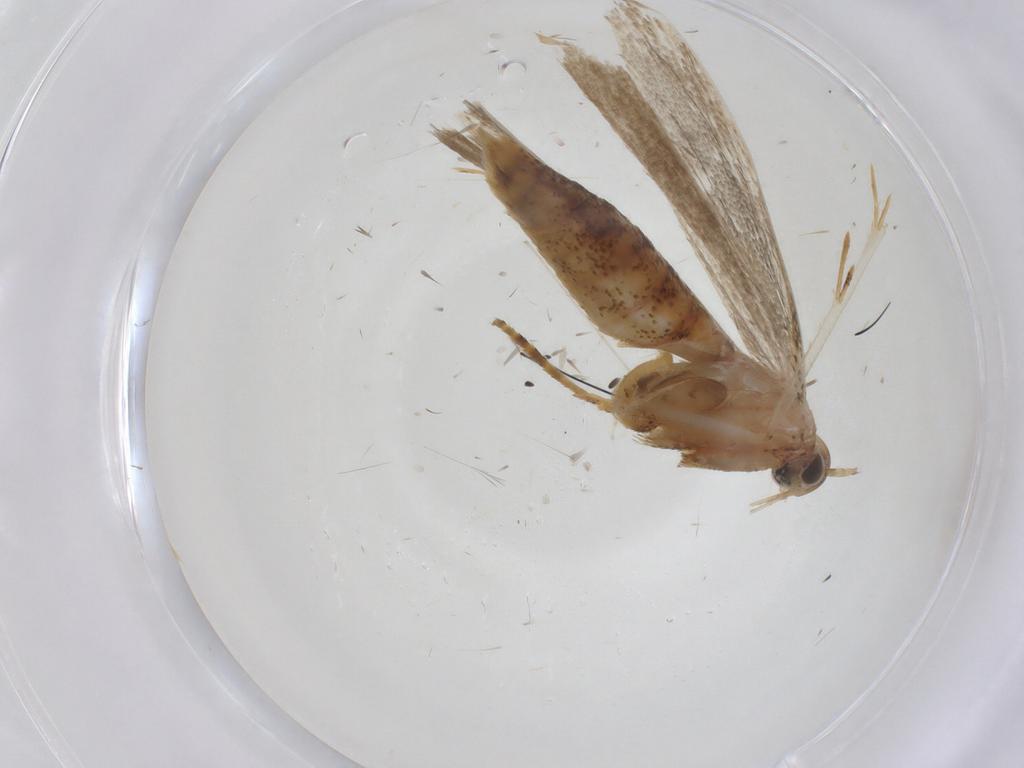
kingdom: Animalia
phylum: Arthropoda
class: Insecta
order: Lepidoptera
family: Crambidae
